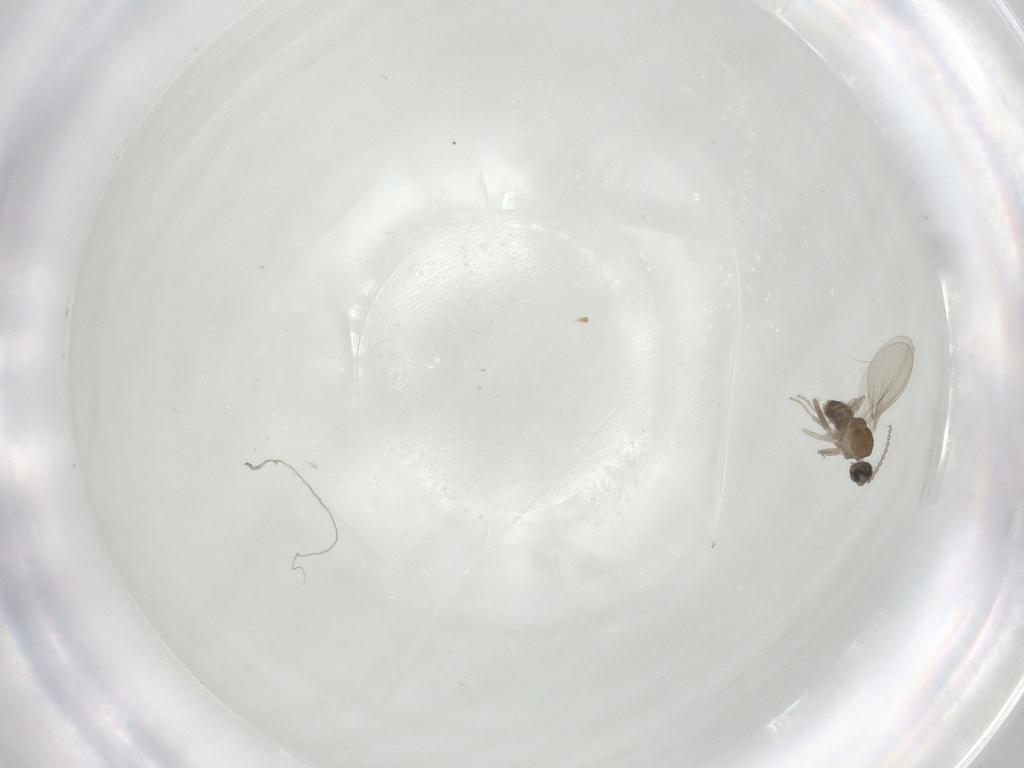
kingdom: Animalia
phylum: Arthropoda
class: Insecta
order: Diptera
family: Cecidomyiidae
